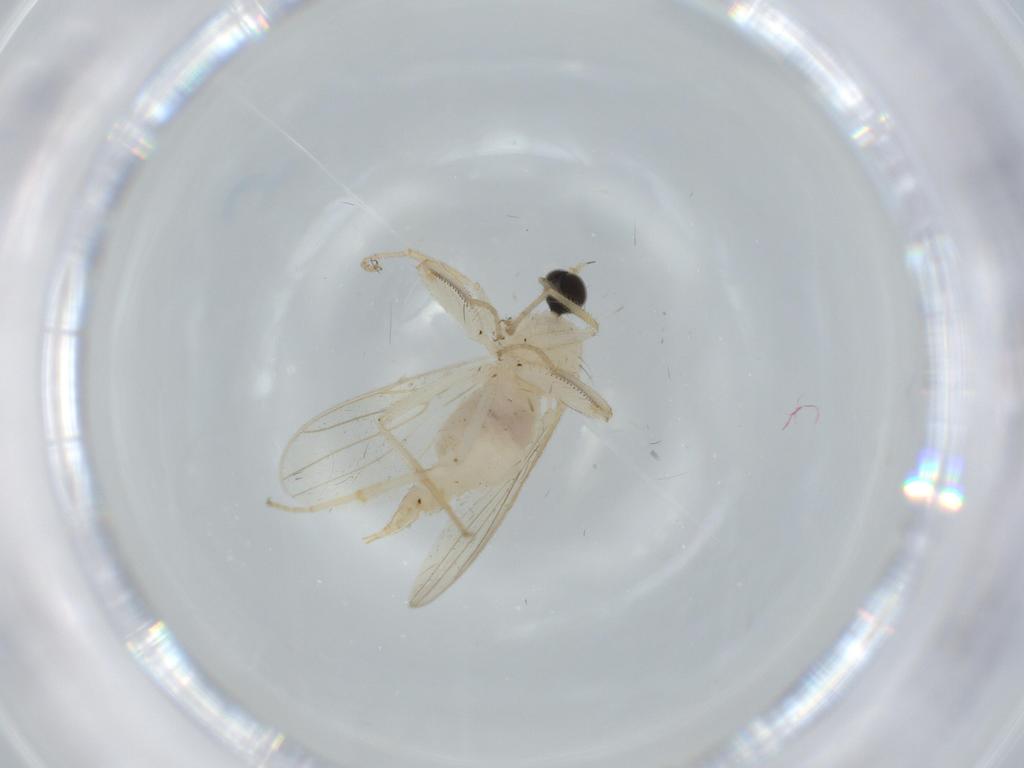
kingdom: Animalia
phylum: Arthropoda
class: Insecta
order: Diptera
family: Hybotidae
